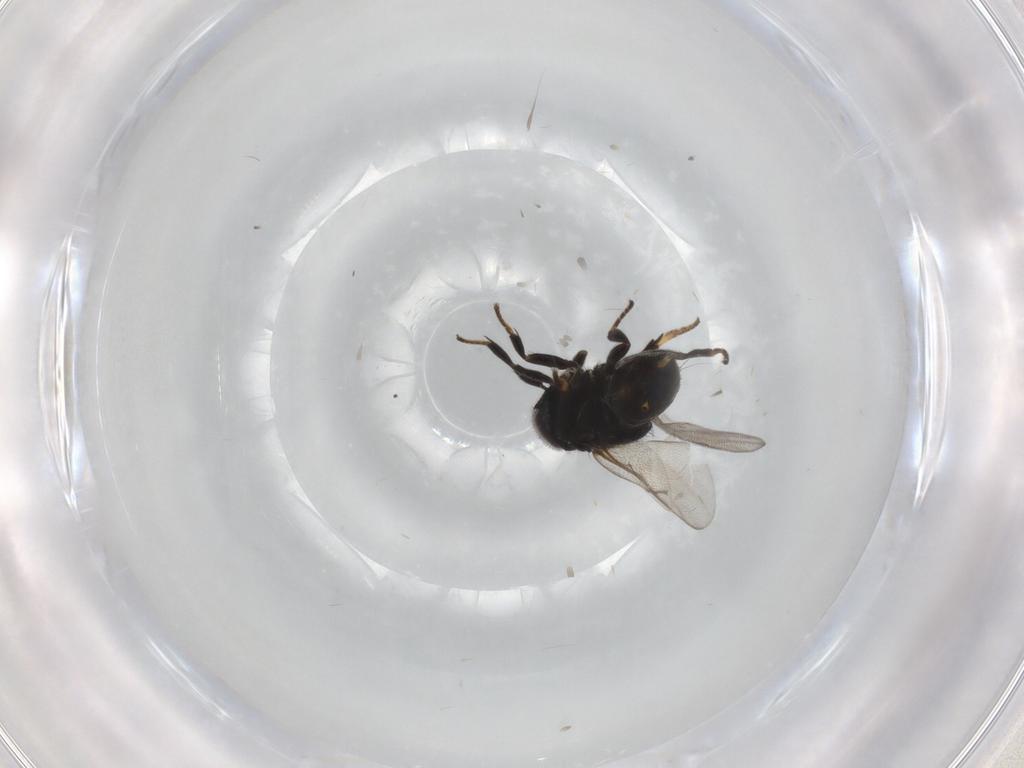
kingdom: Animalia
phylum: Arthropoda
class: Insecta
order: Hymenoptera
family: Encyrtidae
